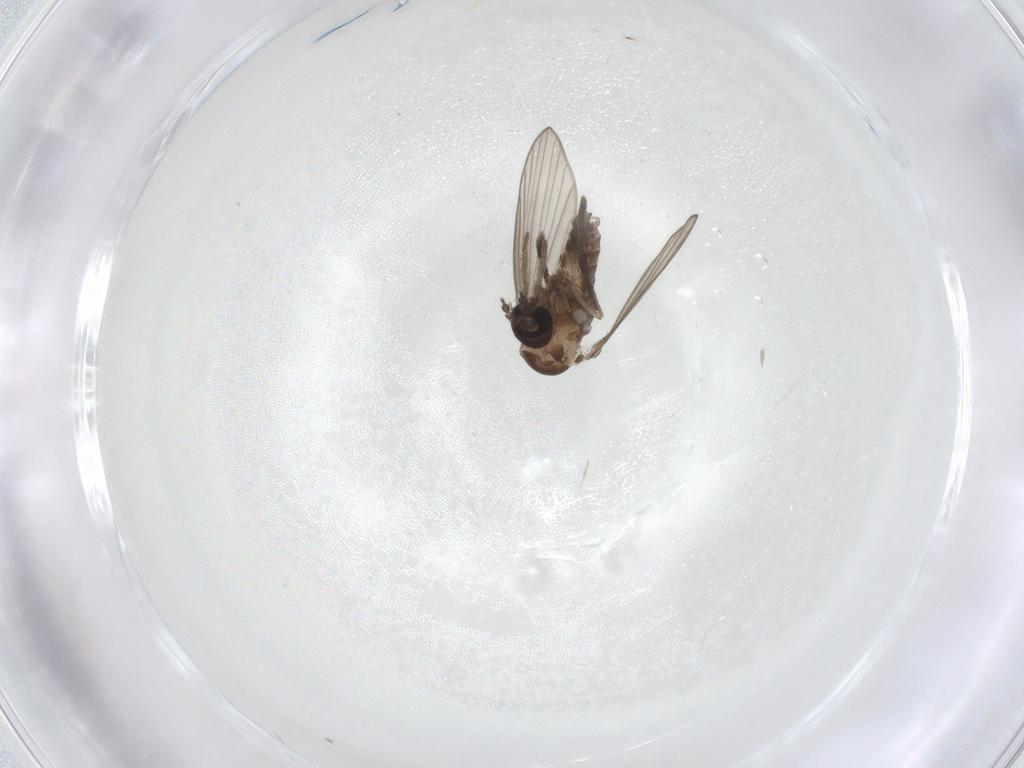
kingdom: Animalia
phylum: Arthropoda
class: Insecta
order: Diptera
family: Psychodidae
